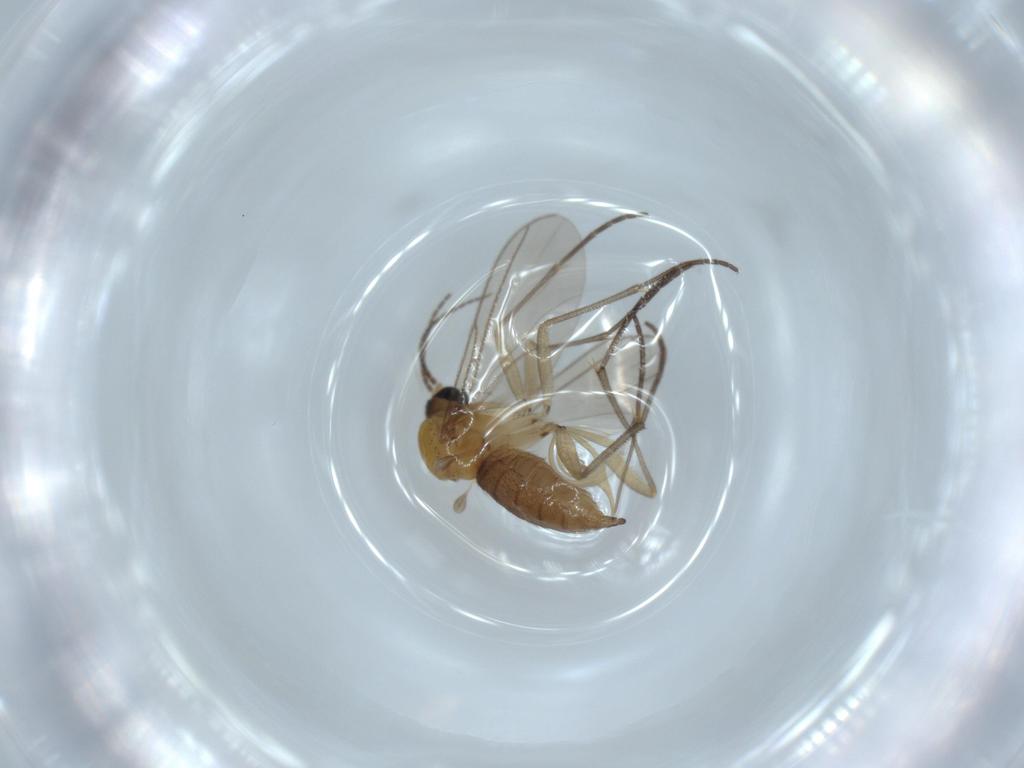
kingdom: Animalia
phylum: Arthropoda
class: Insecta
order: Diptera
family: Sciaridae
